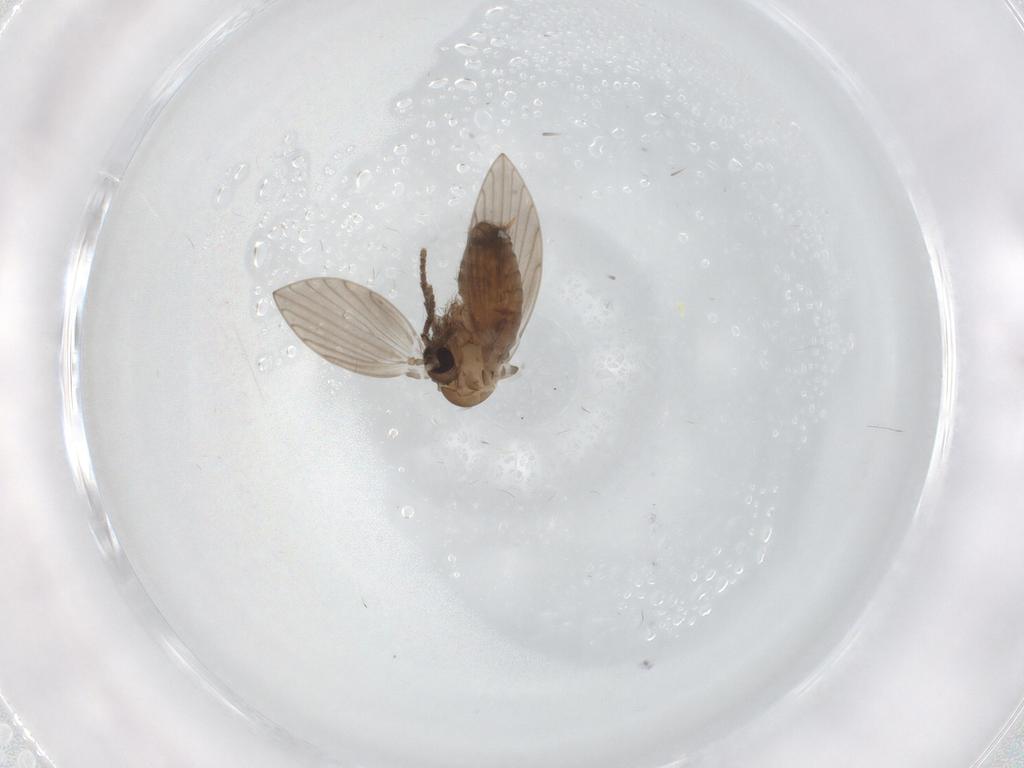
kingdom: Animalia
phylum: Arthropoda
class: Insecta
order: Diptera
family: Psychodidae
